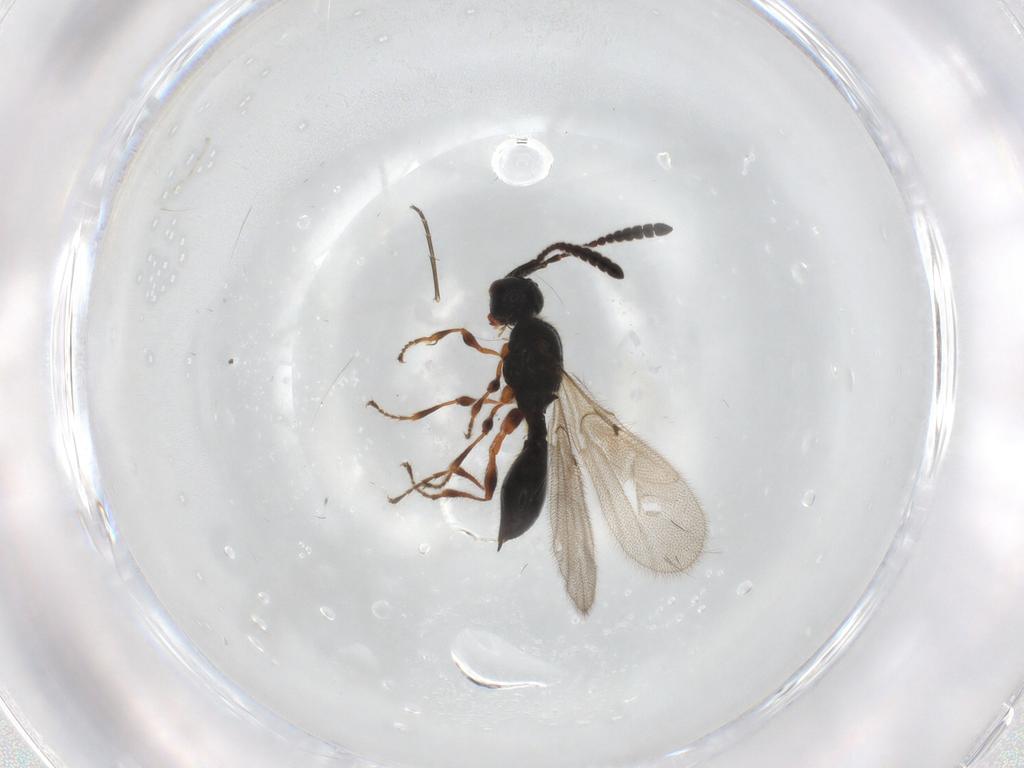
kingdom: Animalia
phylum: Arthropoda
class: Insecta
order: Hymenoptera
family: Diapriidae
